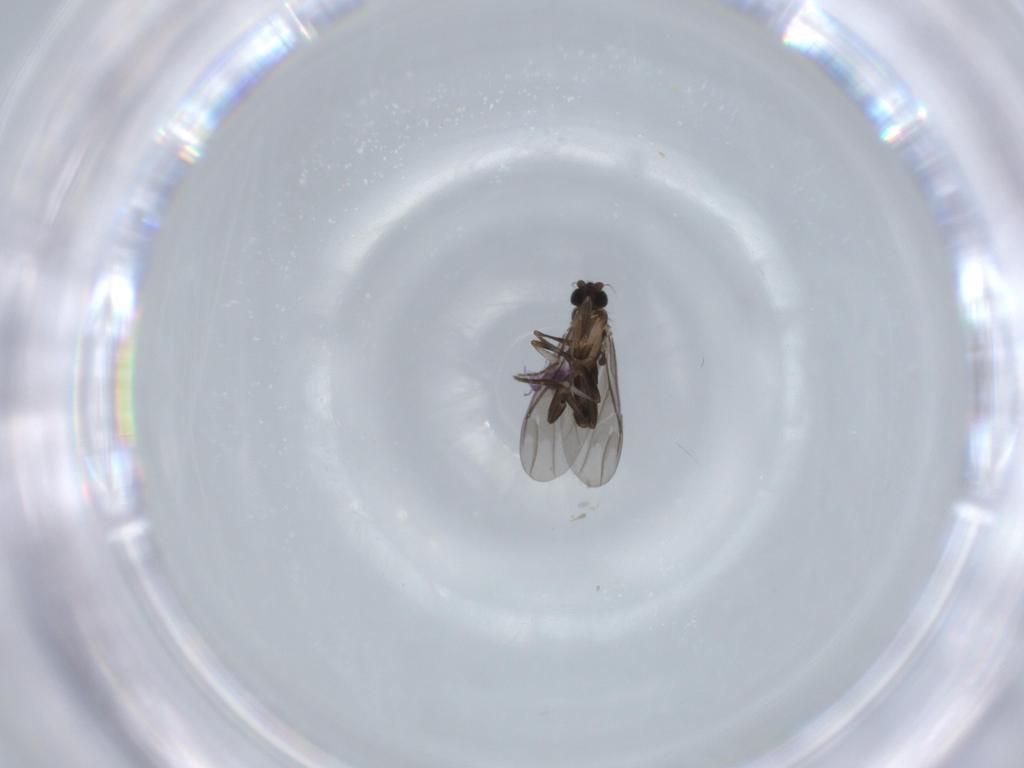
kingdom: Animalia
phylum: Arthropoda
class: Insecta
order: Diptera
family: Phoridae
